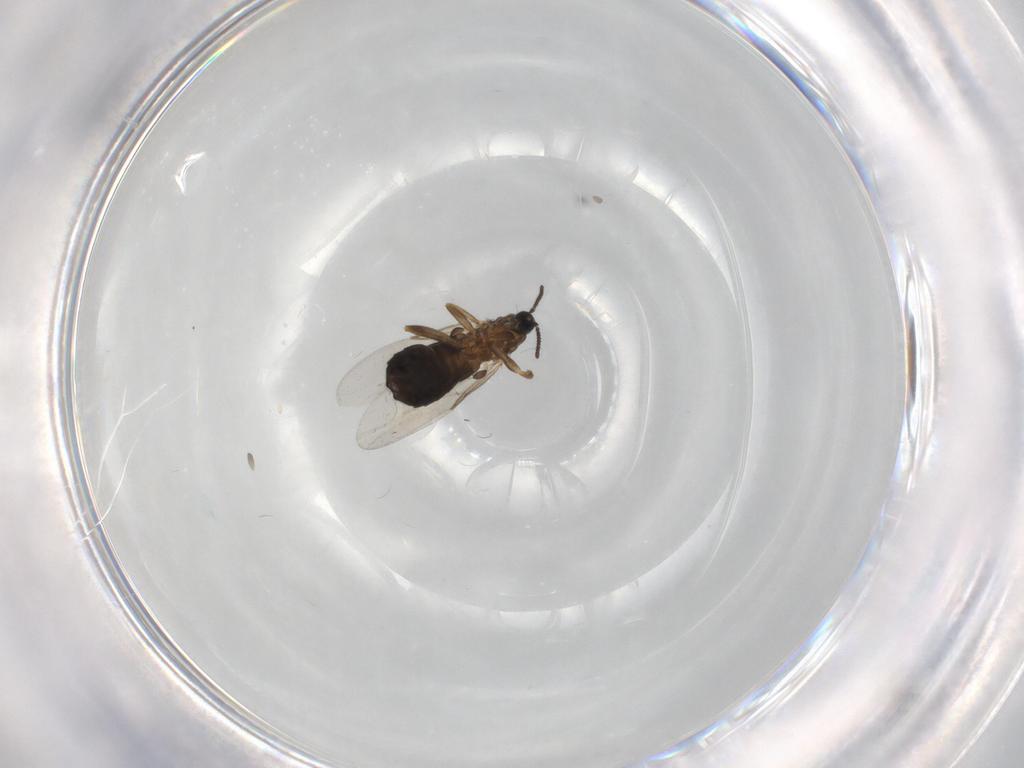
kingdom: Animalia
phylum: Arthropoda
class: Insecta
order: Diptera
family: Scatopsidae
